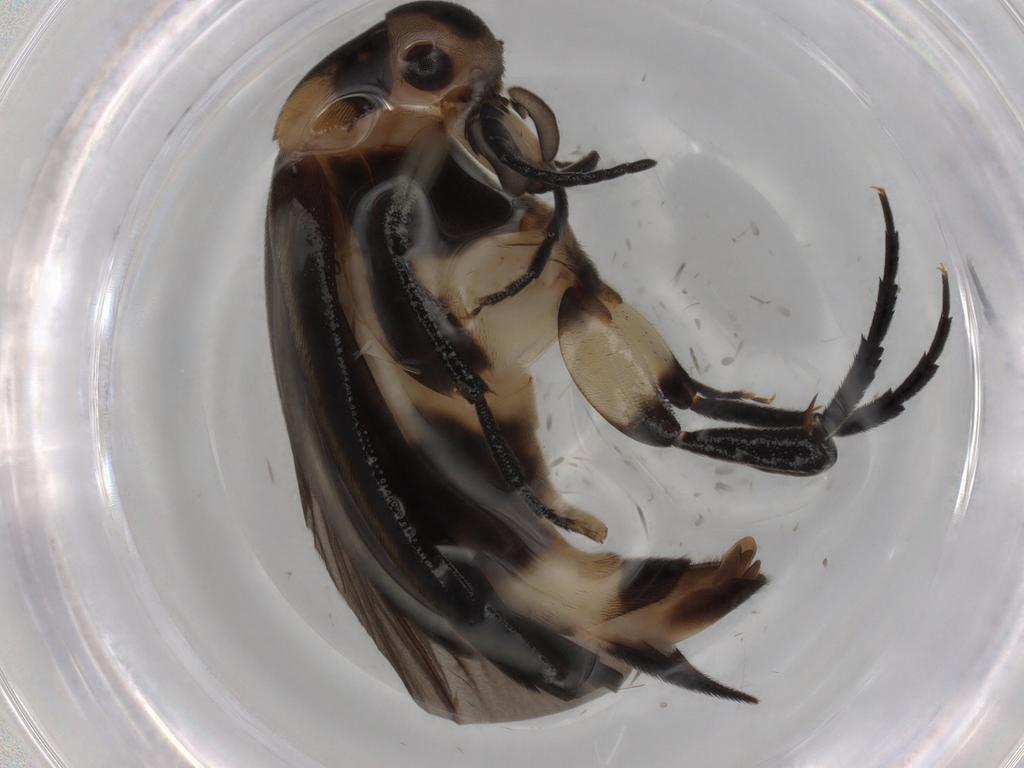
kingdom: Animalia
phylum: Arthropoda
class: Insecta
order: Coleoptera
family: Mordellidae
